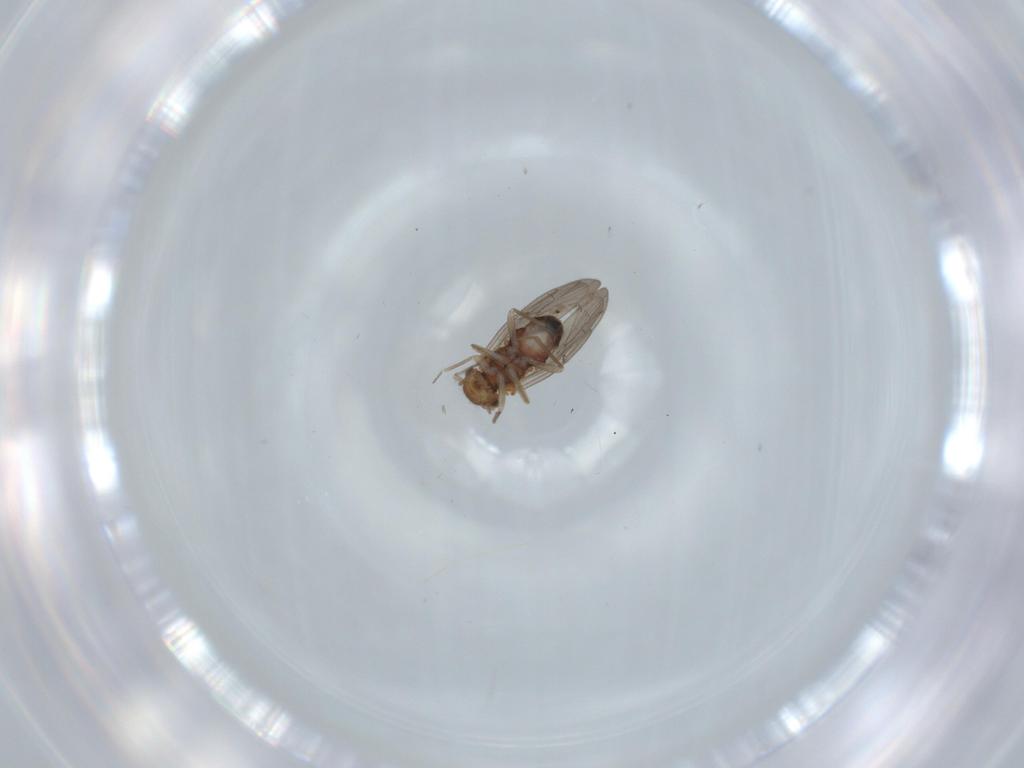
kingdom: Animalia
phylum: Arthropoda
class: Insecta
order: Psocodea
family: Ectopsocidae
